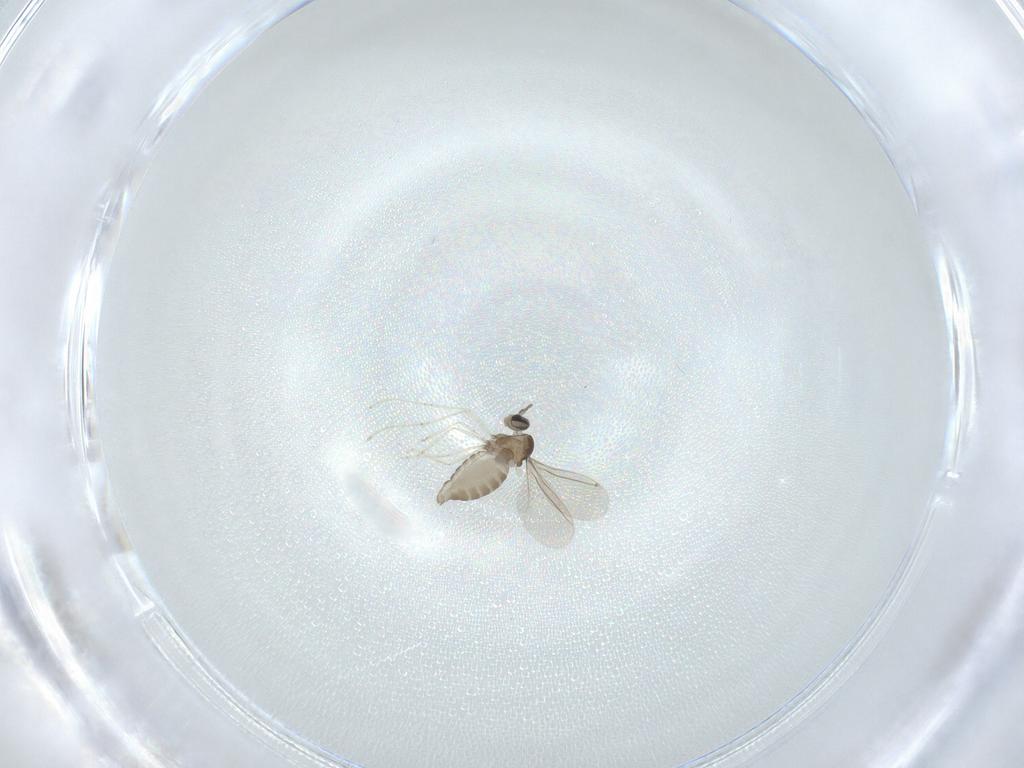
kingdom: Animalia
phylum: Arthropoda
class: Insecta
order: Diptera
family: Cecidomyiidae
